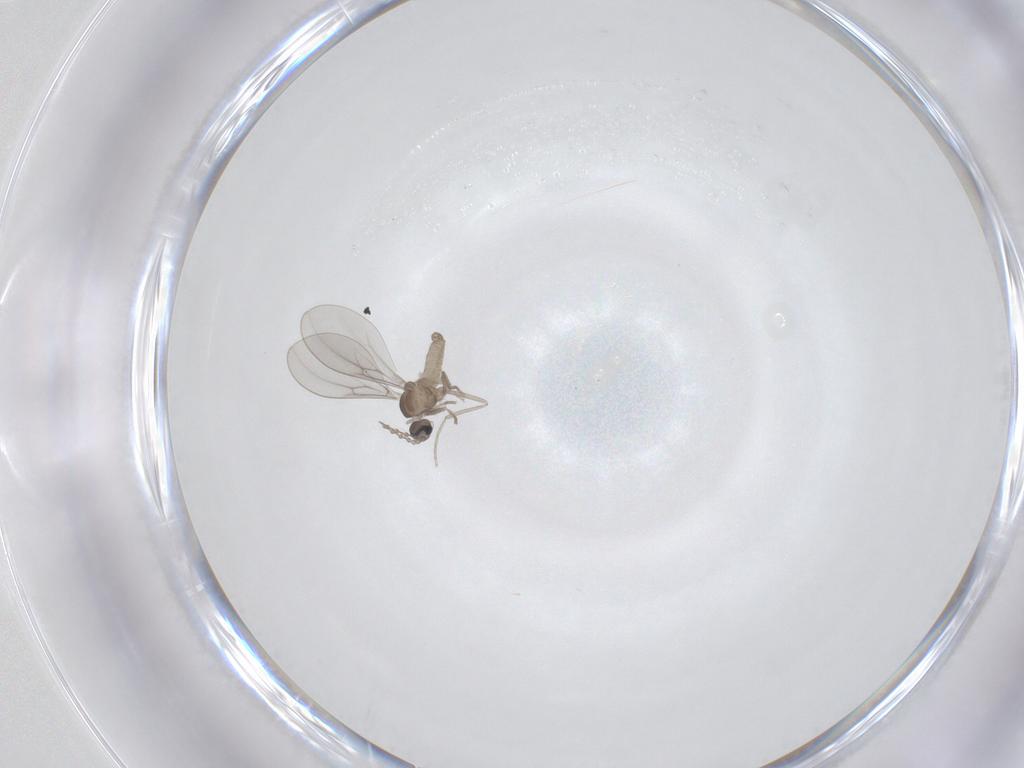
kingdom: Animalia
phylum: Arthropoda
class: Insecta
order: Diptera
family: Cecidomyiidae
